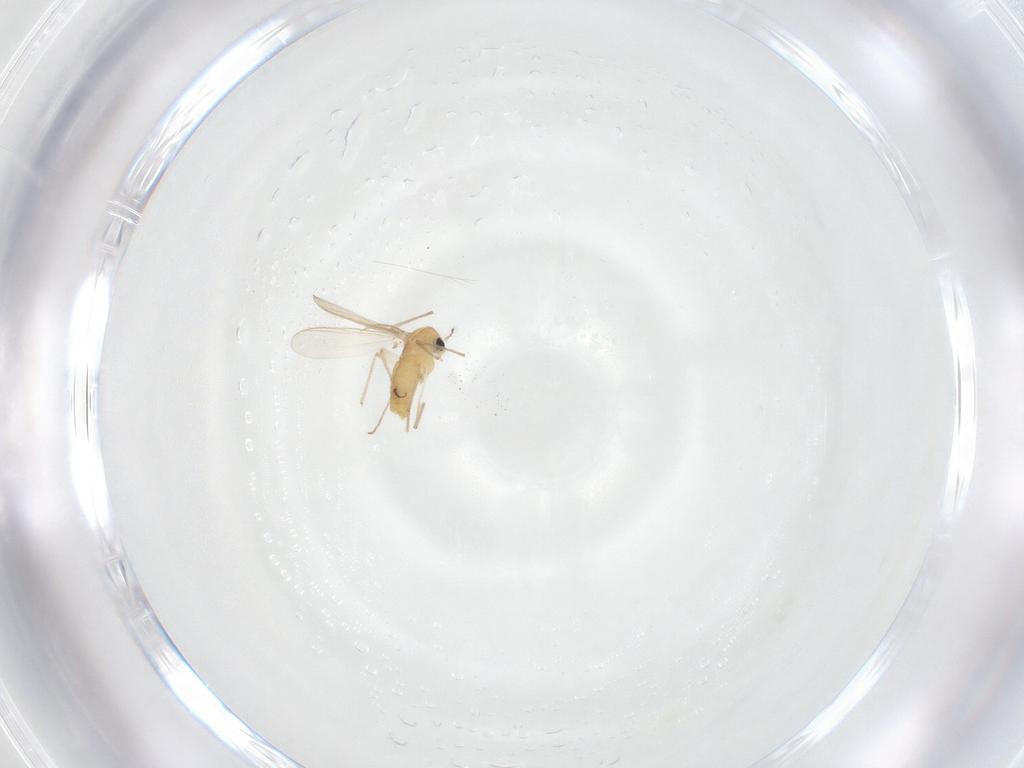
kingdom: Animalia
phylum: Arthropoda
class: Insecta
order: Diptera
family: Chironomidae
